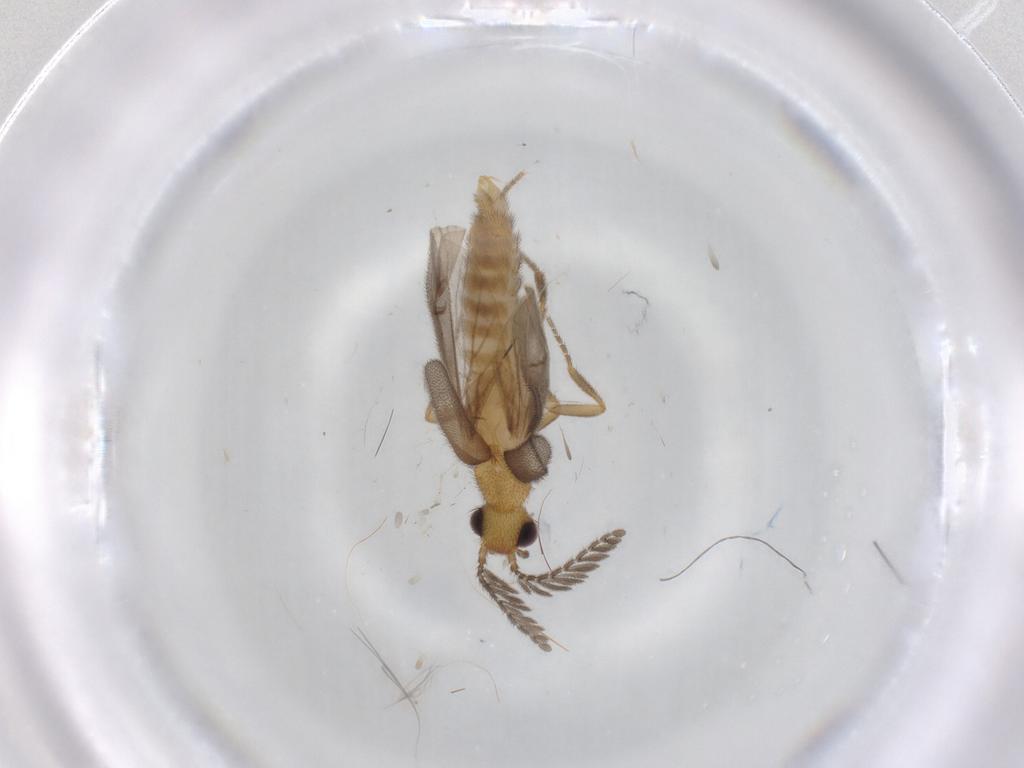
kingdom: Animalia
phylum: Arthropoda
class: Insecta
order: Coleoptera
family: Phengodidae
